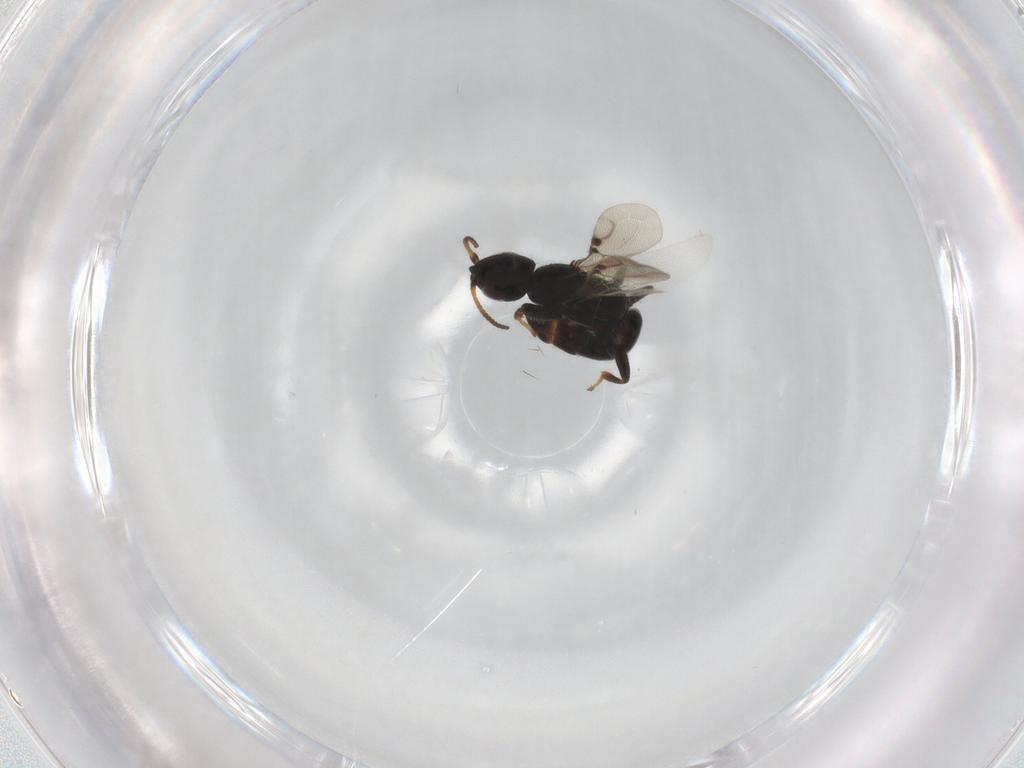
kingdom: Animalia
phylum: Arthropoda
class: Insecta
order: Hymenoptera
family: Bethylidae
